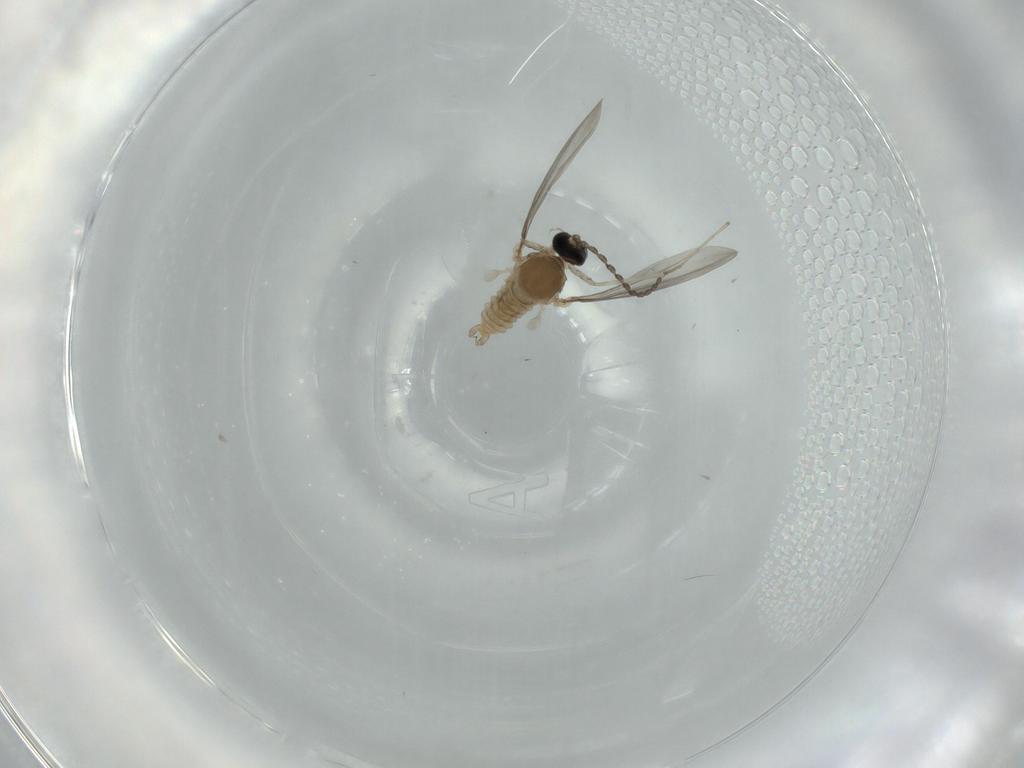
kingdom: Animalia
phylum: Arthropoda
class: Insecta
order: Diptera
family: Cecidomyiidae
